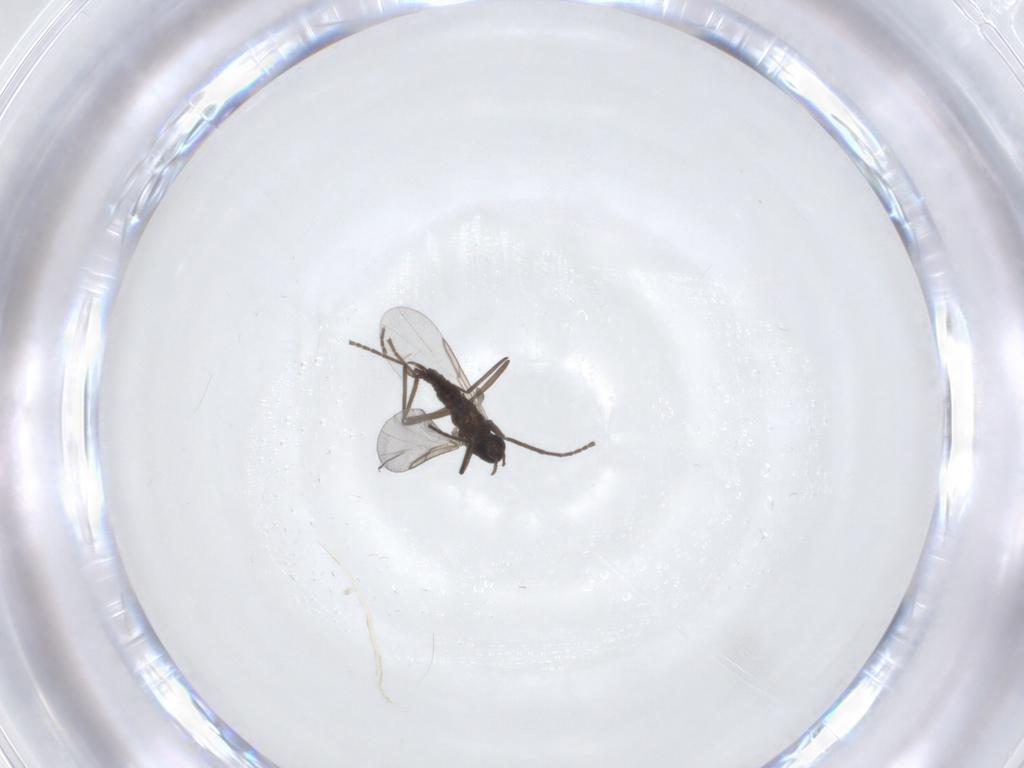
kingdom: Animalia
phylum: Arthropoda
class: Insecta
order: Diptera
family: Cecidomyiidae
